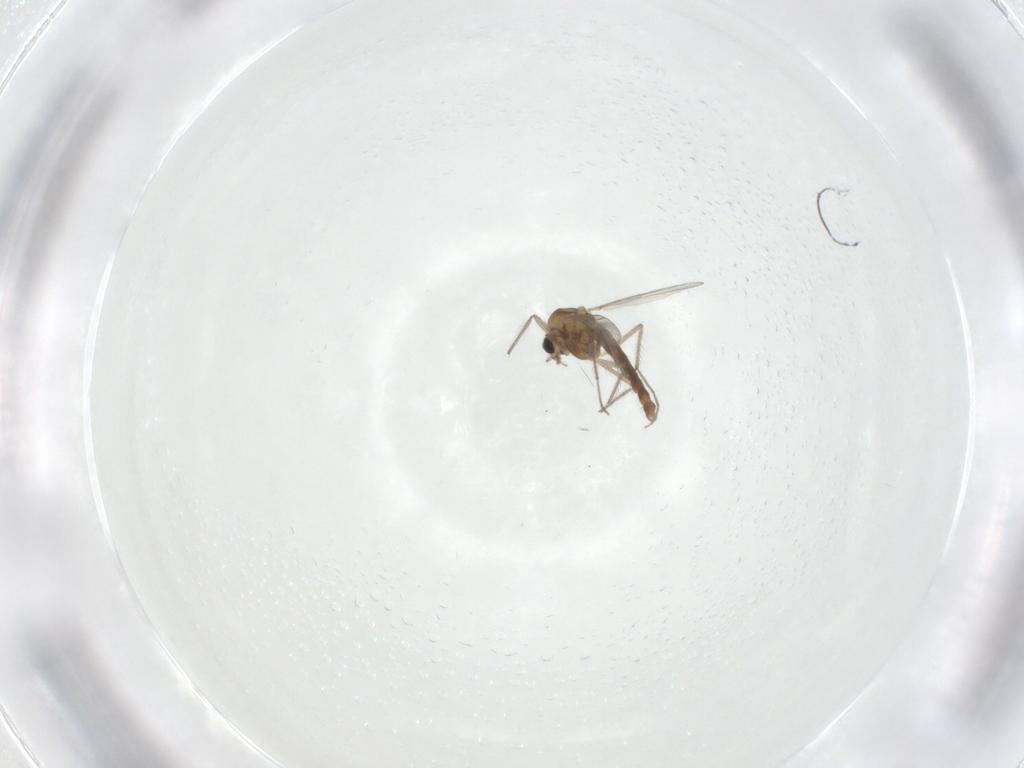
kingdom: Animalia
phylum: Arthropoda
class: Insecta
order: Diptera
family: Chironomidae
